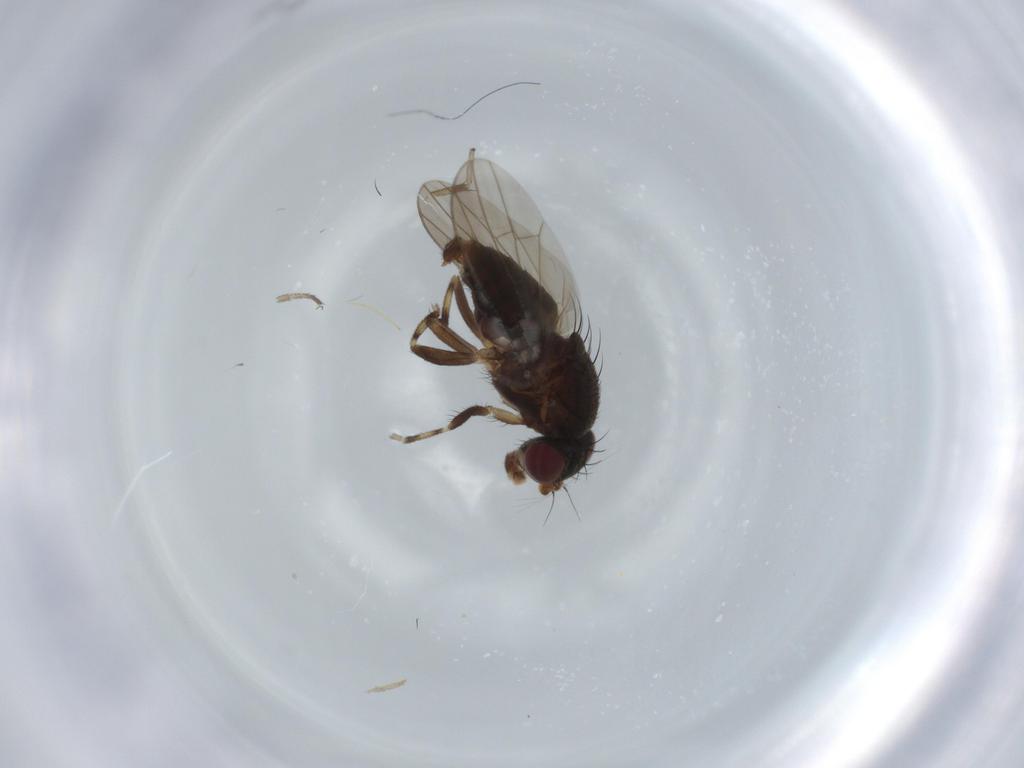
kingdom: Animalia
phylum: Arthropoda
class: Insecta
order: Diptera
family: Heleomyzidae
